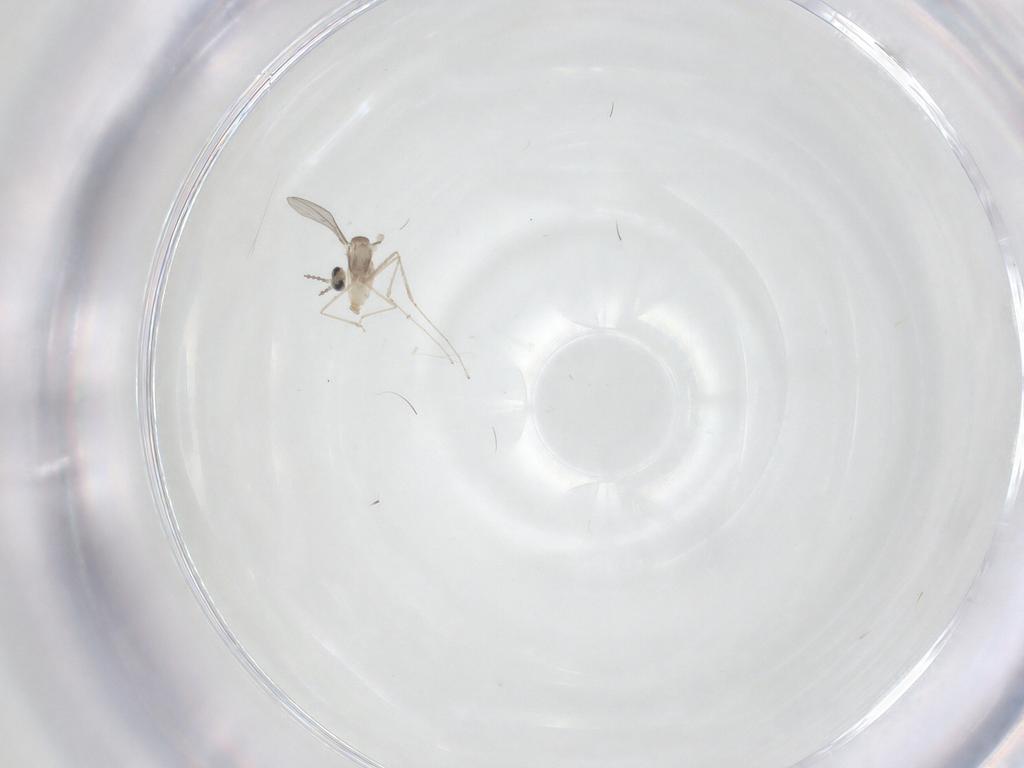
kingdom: Animalia
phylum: Arthropoda
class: Insecta
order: Diptera
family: Cecidomyiidae
